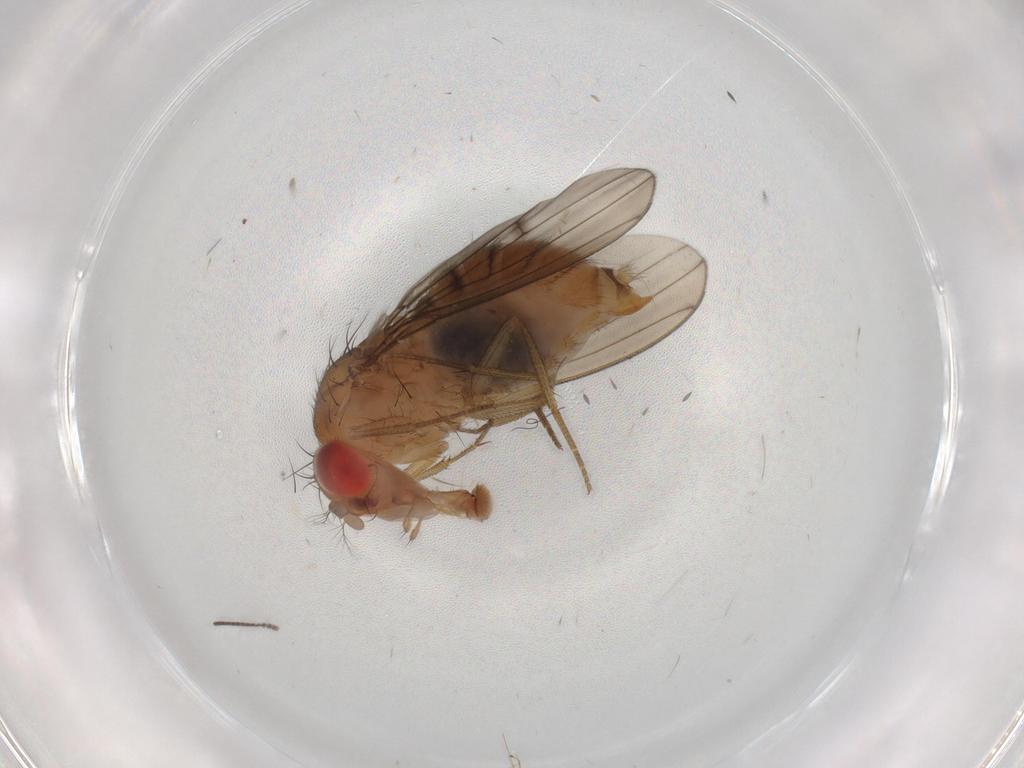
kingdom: Animalia
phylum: Arthropoda
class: Insecta
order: Diptera
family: Drosophilidae
